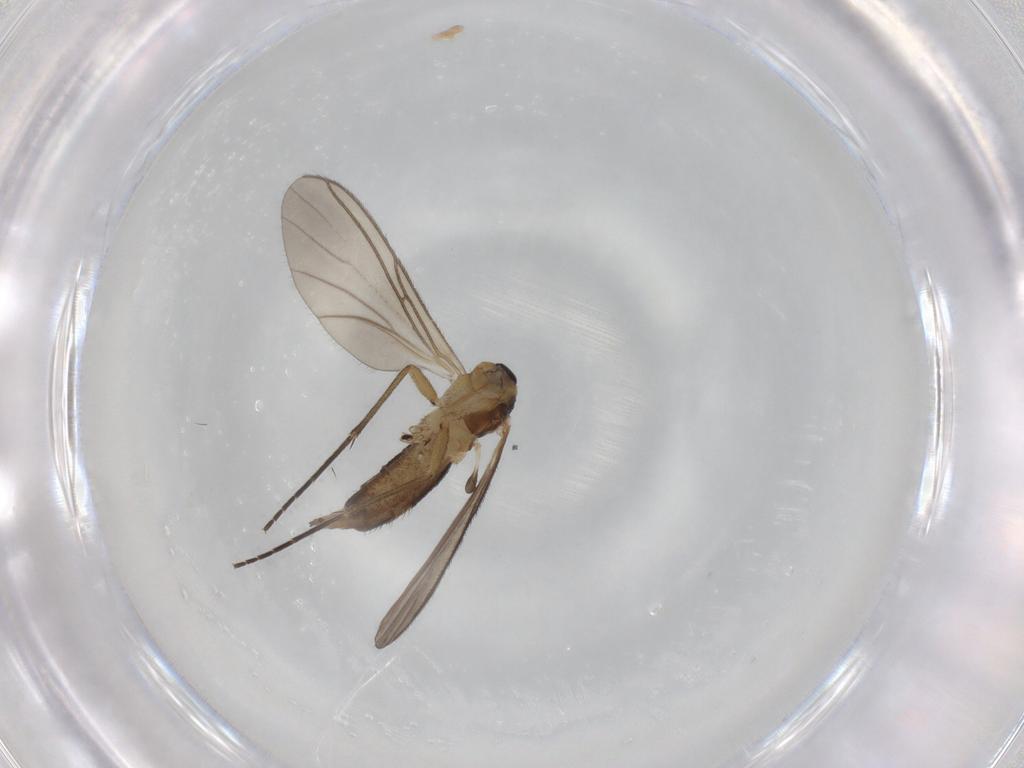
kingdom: Animalia
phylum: Arthropoda
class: Insecta
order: Diptera
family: Sciaridae
